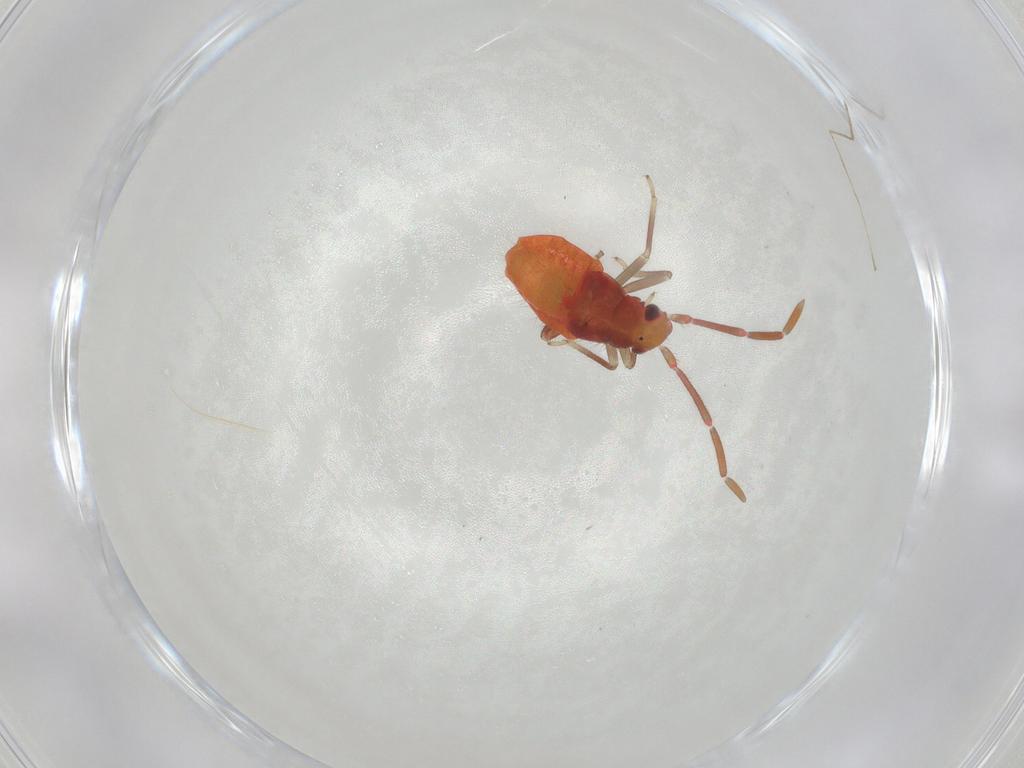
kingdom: Animalia
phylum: Arthropoda
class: Insecta
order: Hemiptera
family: Miridae
